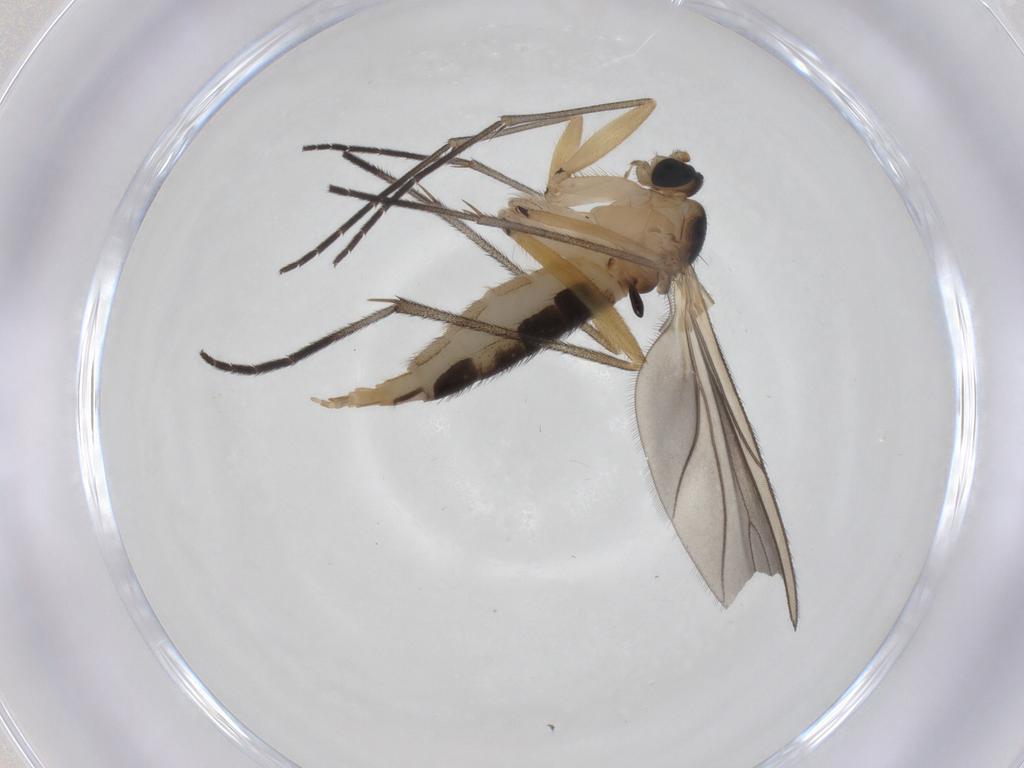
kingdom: Animalia
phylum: Arthropoda
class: Insecta
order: Diptera
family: Sciaridae
